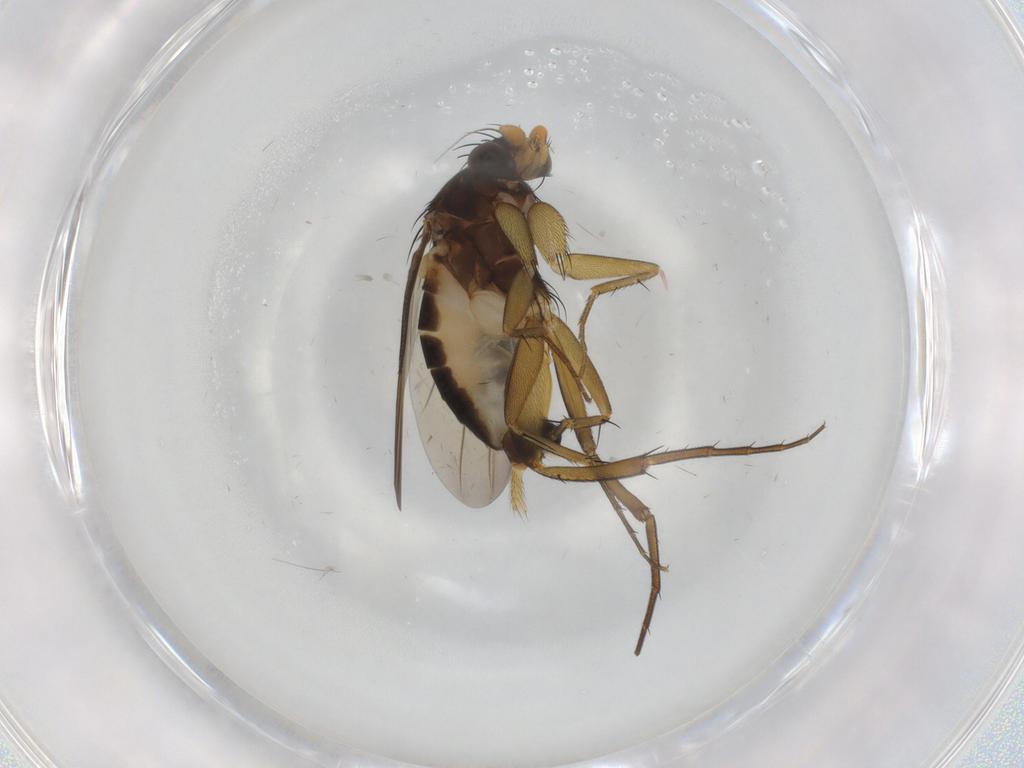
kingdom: Animalia
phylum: Arthropoda
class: Insecta
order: Diptera
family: Phoridae
